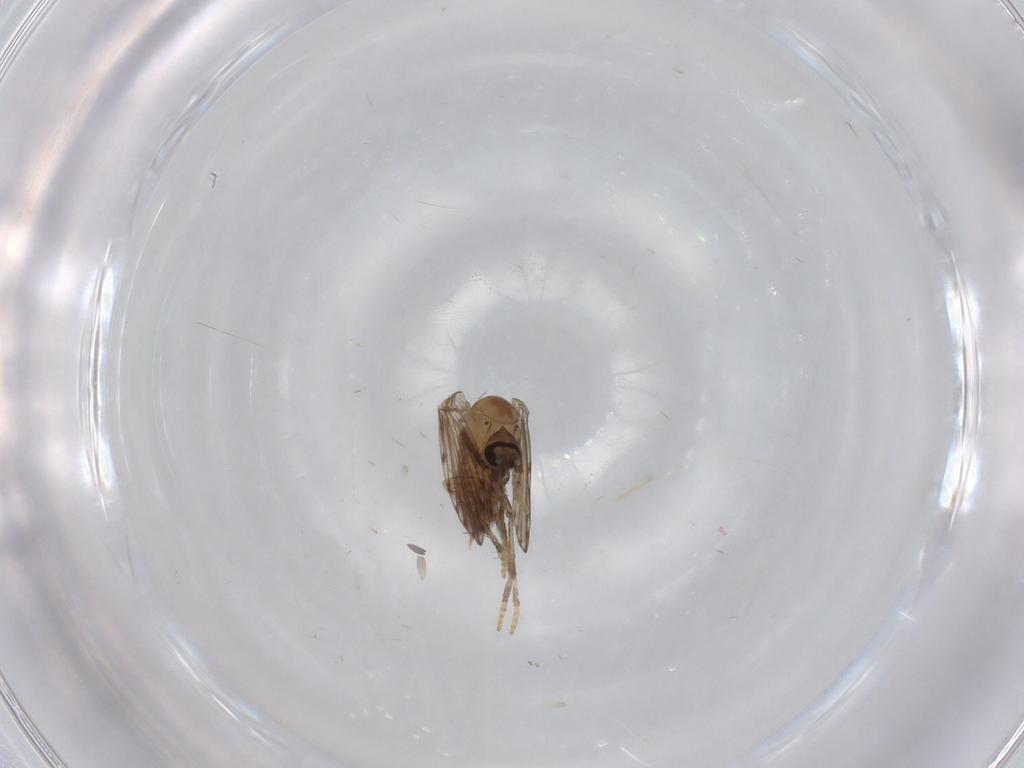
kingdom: Animalia
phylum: Arthropoda
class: Insecta
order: Diptera
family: Psychodidae
